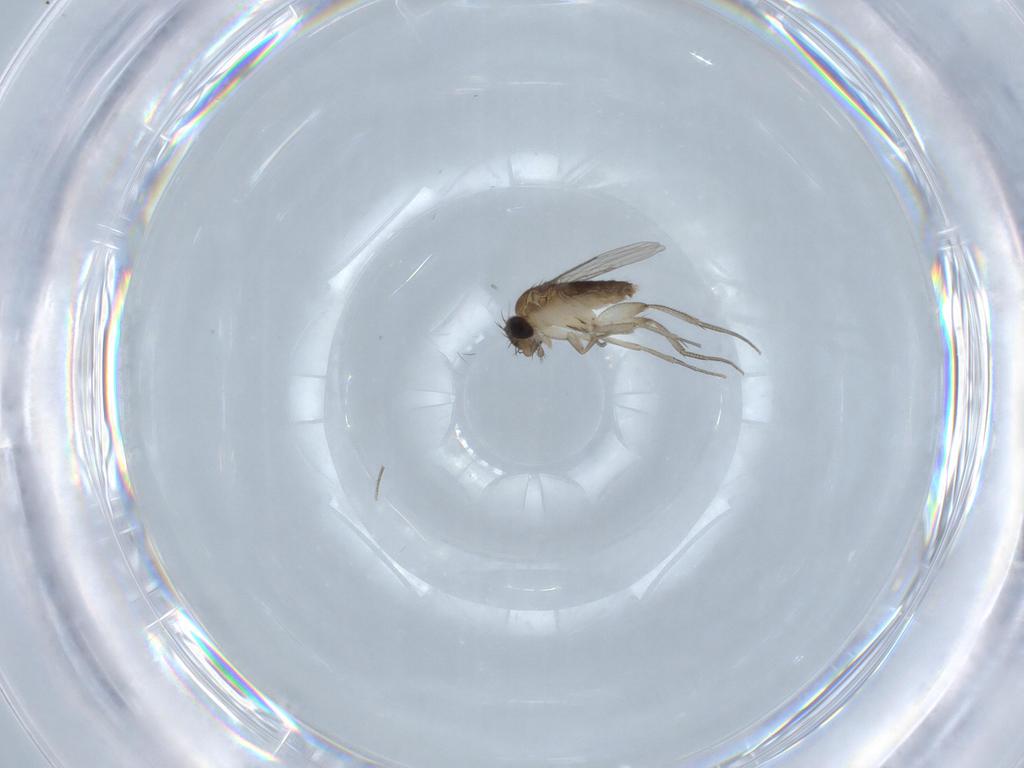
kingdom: Animalia
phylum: Arthropoda
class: Insecta
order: Diptera
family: Phoridae
